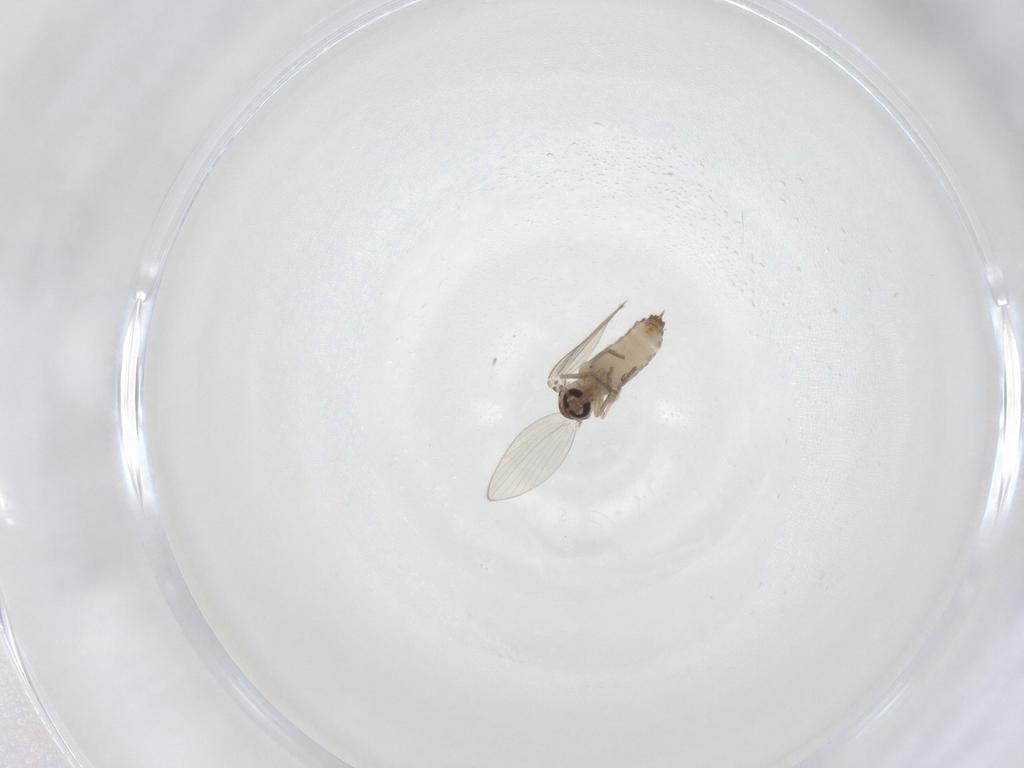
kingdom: Animalia
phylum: Arthropoda
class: Insecta
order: Diptera
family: Psychodidae
